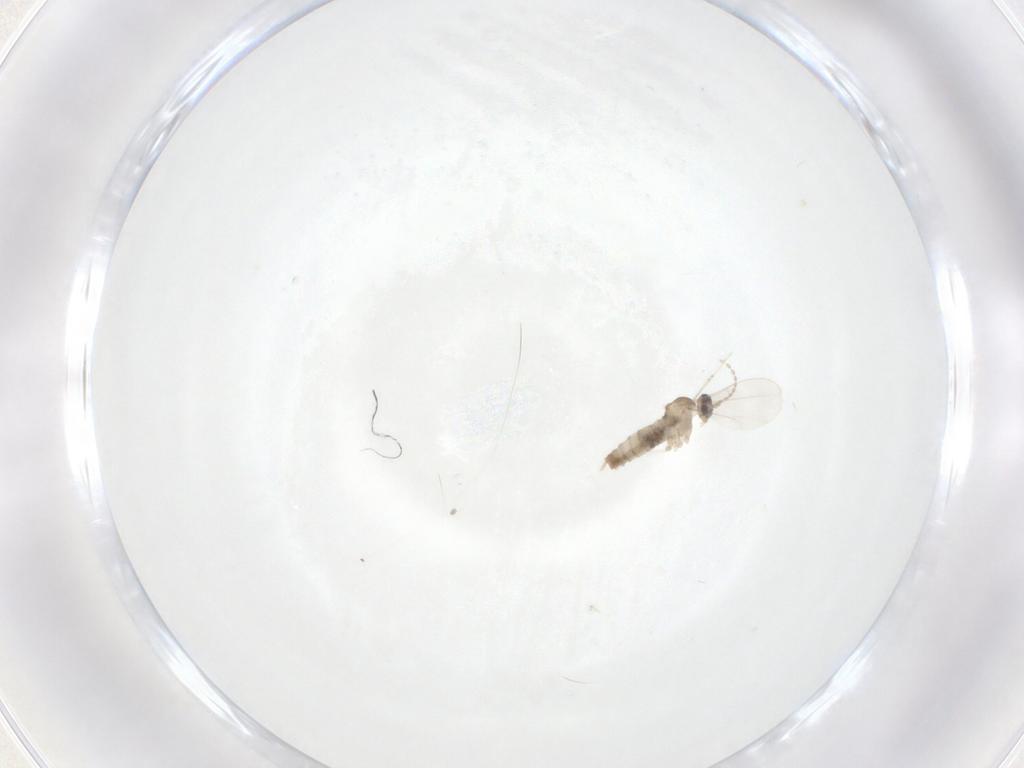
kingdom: Animalia
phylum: Arthropoda
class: Insecta
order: Diptera
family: Cecidomyiidae
